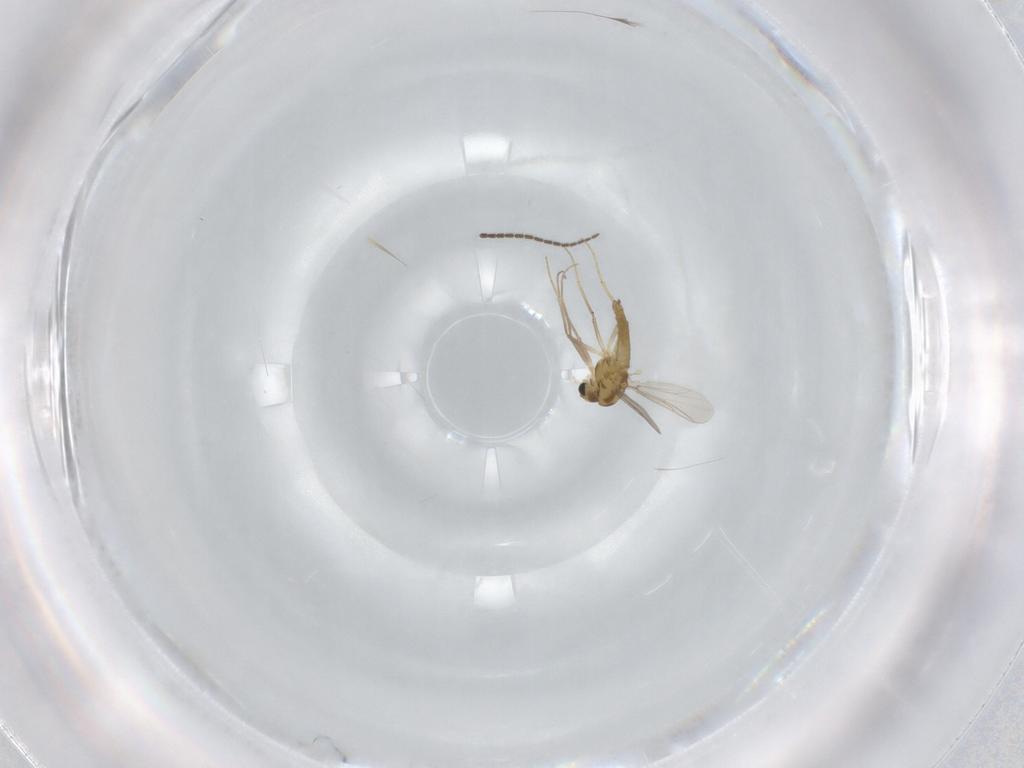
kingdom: Animalia
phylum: Arthropoda
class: Insecta
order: Diptera
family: Chironomidae
